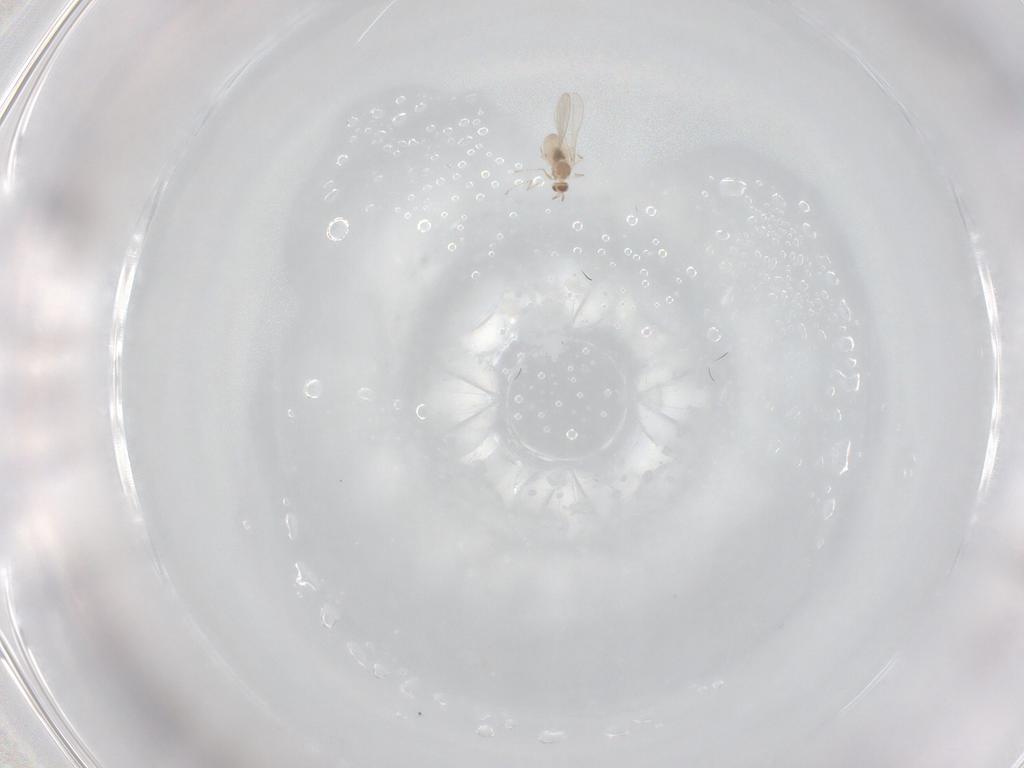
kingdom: Animalia
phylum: Arthropoda
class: Insecta
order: Diptera
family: Cecidomyiidae
